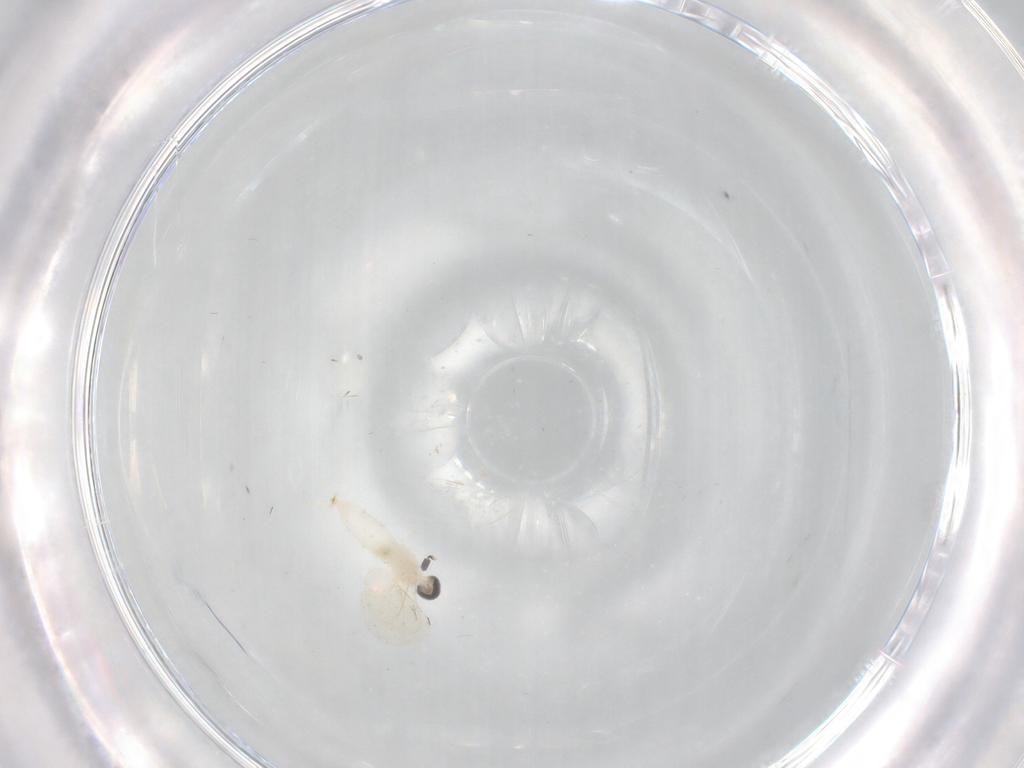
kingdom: Animalia
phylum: Arthropoda
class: Insecta
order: Diptera
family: Cecidomyiidae
